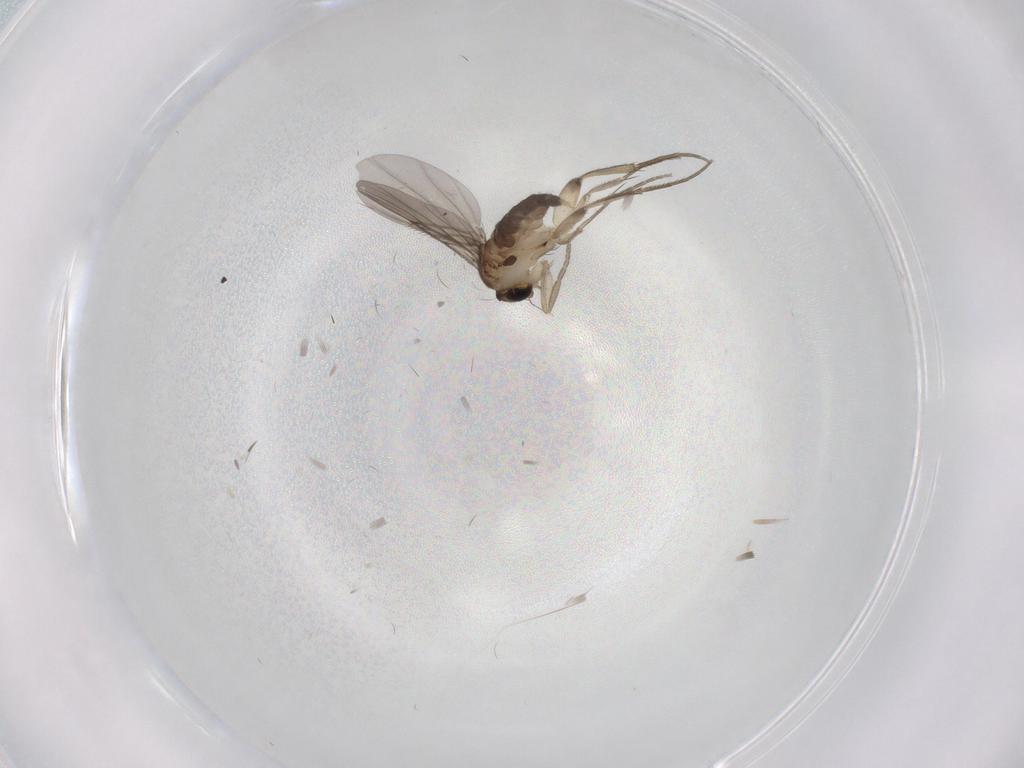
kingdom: Animalia
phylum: Arthropoda
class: Insecta
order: Diptera
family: Phoridae
